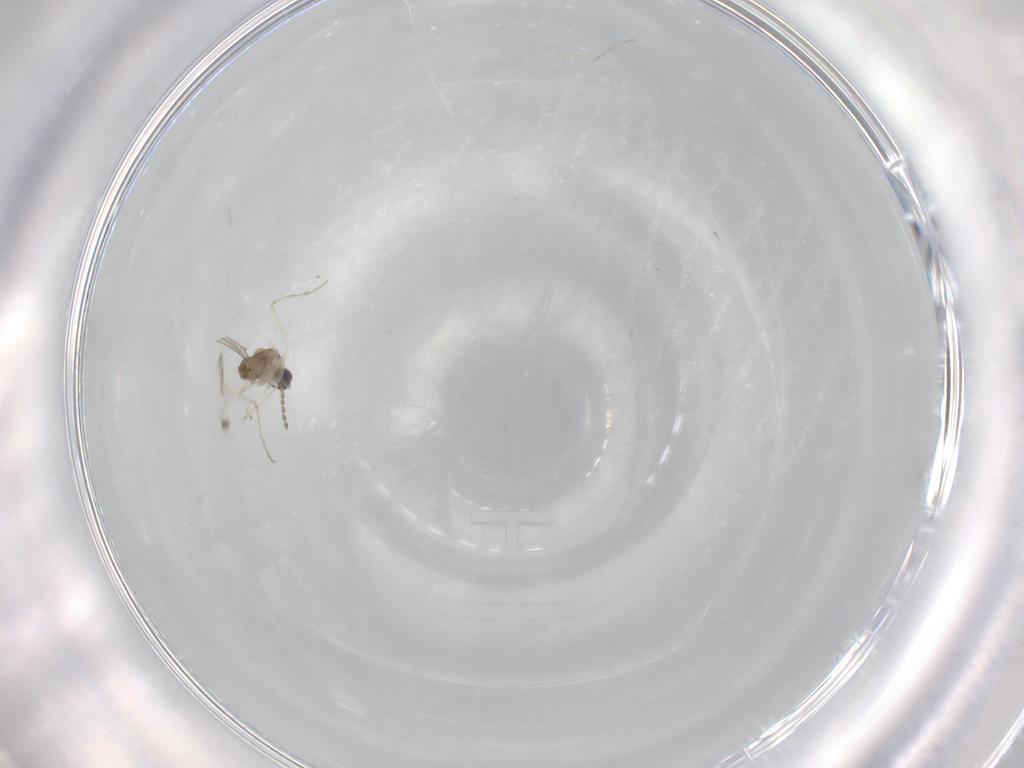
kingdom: Animalia
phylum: Arthropoda
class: Insecta
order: Diptera
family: Cecidomyiidae
